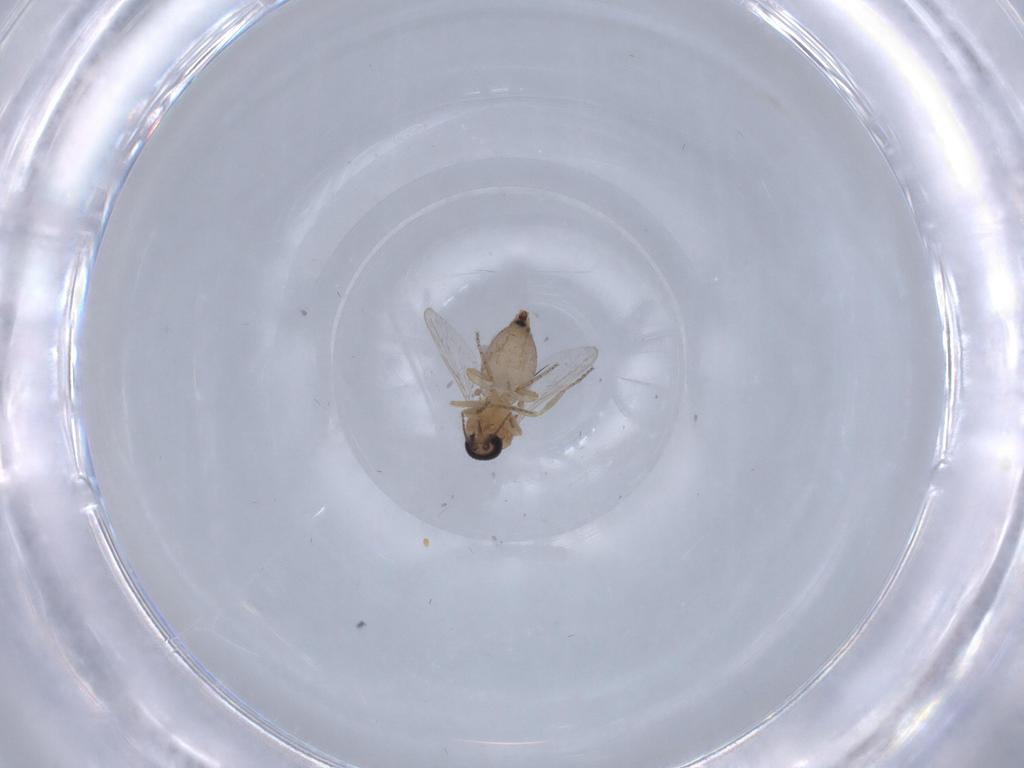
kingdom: Animalia
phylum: Arthropoda
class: Insecta
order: Diptera
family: Ceratopogonidae
